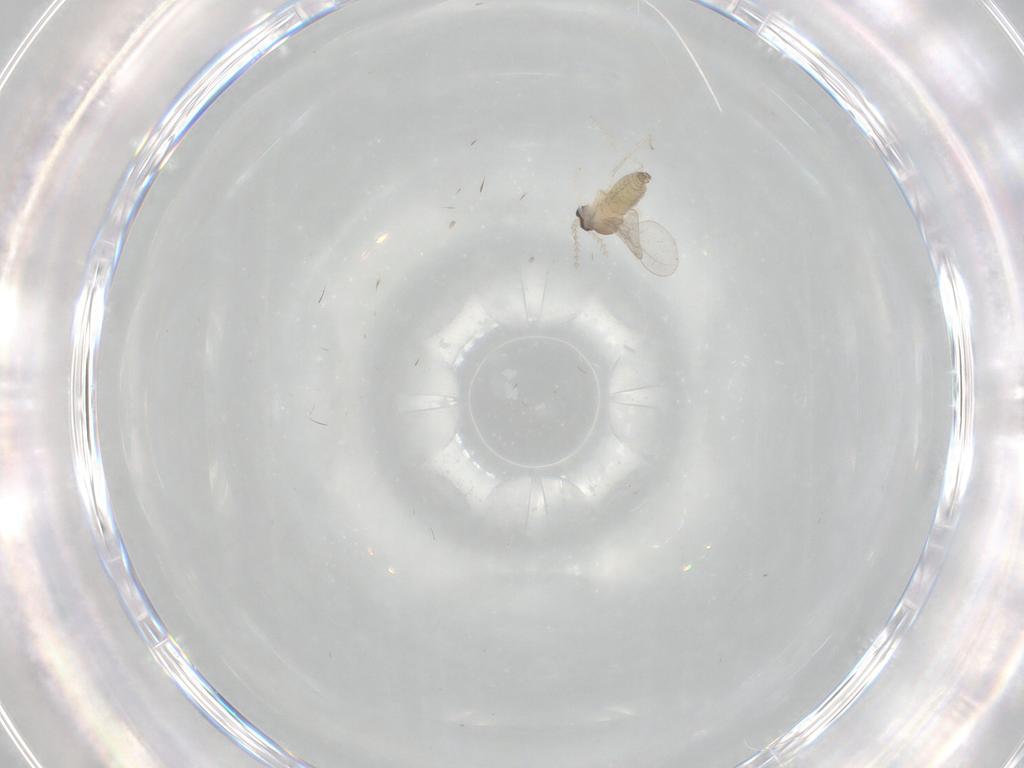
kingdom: Animalia
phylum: Arthropoda
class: Insecta
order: Diptera
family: Cecidomyiidae
